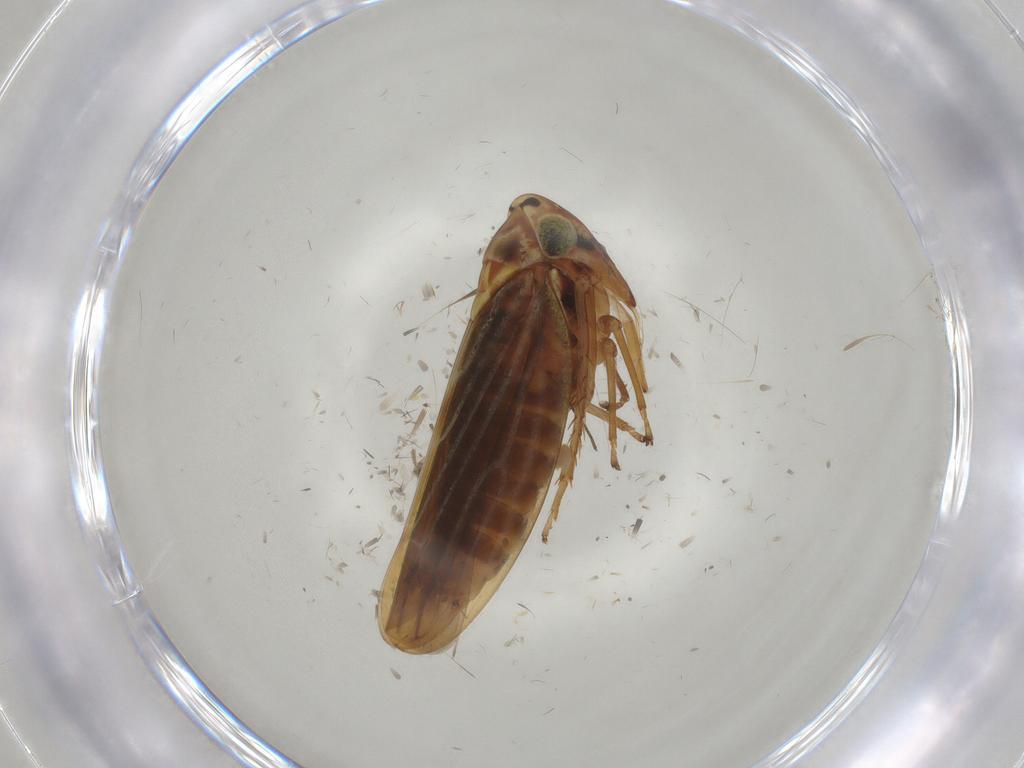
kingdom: Animalia
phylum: Arthropoda
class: Insecta
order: Hemiptera
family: Cicadellidae
